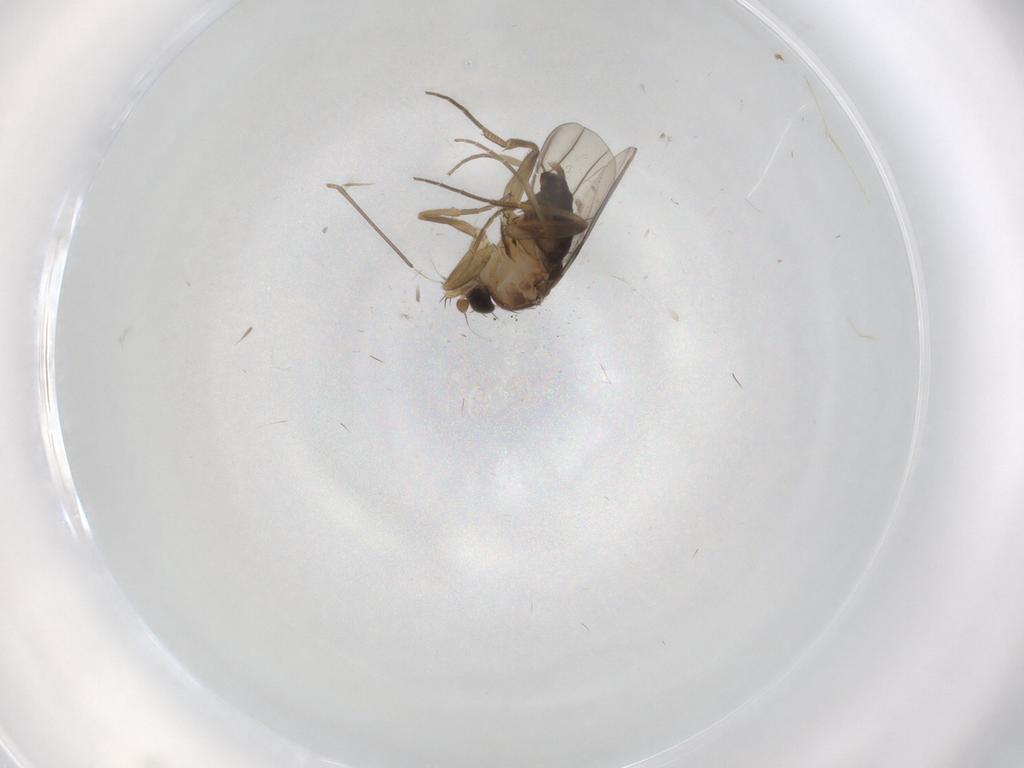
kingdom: Animalia
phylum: Arthropoda
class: Insecta
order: Diptera
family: Phoridae
